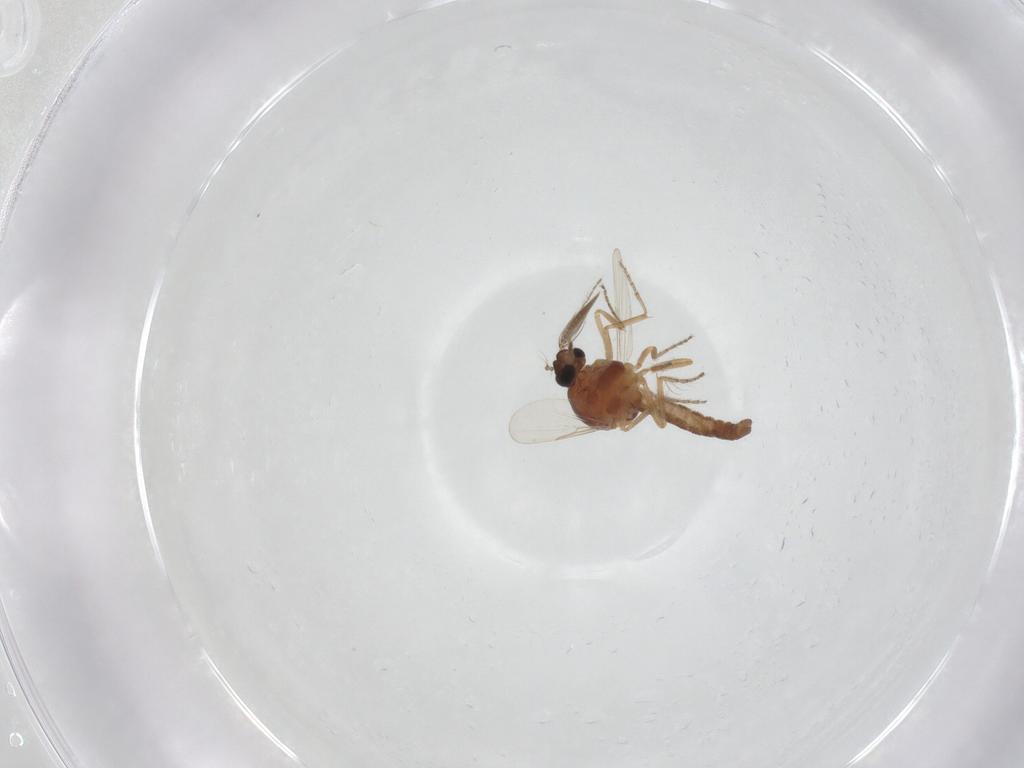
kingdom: Animalia
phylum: Arthropoda
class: Insecta
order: Diptera
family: Ceratopogonidae
